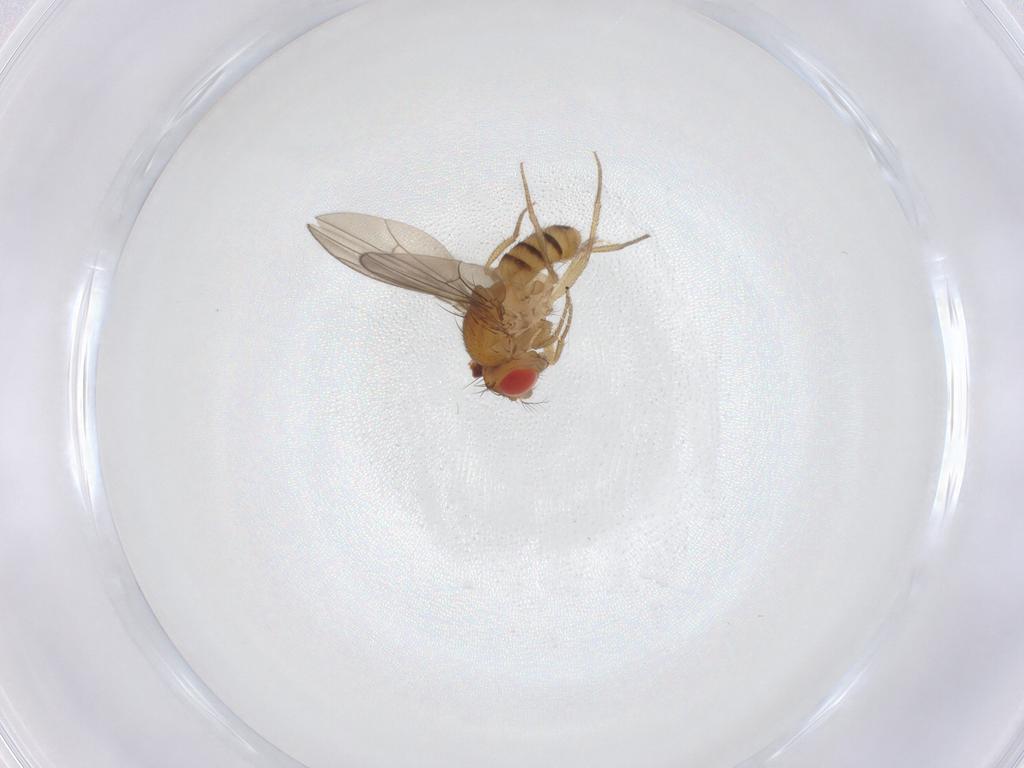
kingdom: Animalia
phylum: Arthropoda
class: Insecta
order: Diptera
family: Drosophilidae
